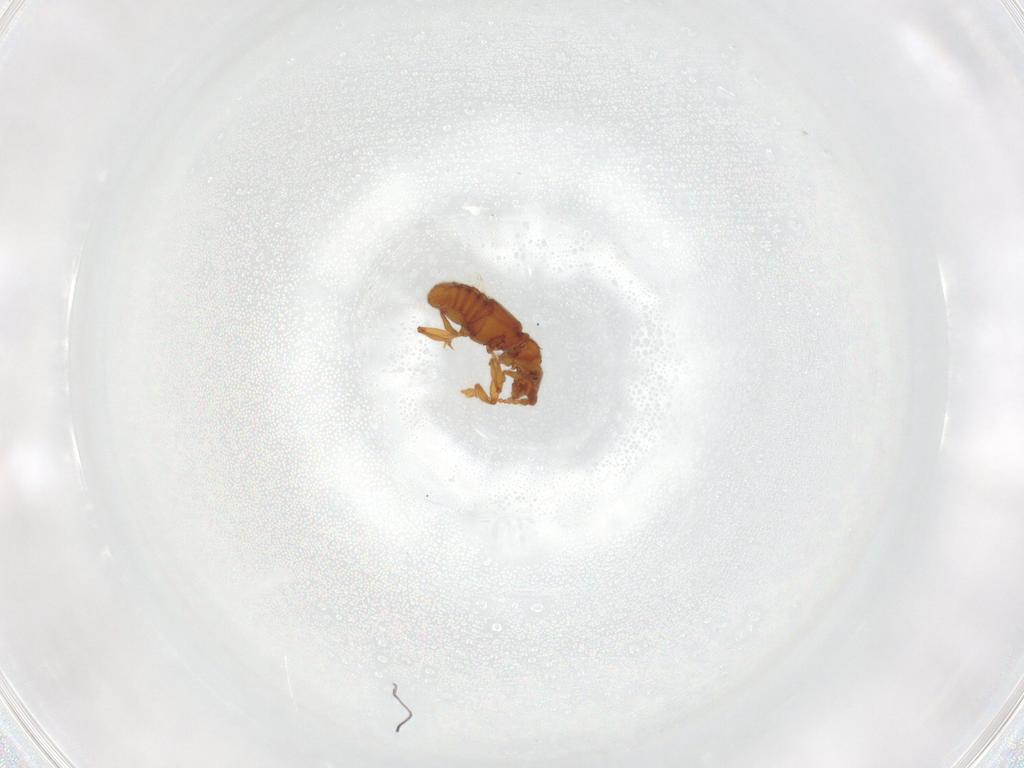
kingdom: Animalia
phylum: Arthropoda
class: Insecta
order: Coleoptera
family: Staphylinidae
